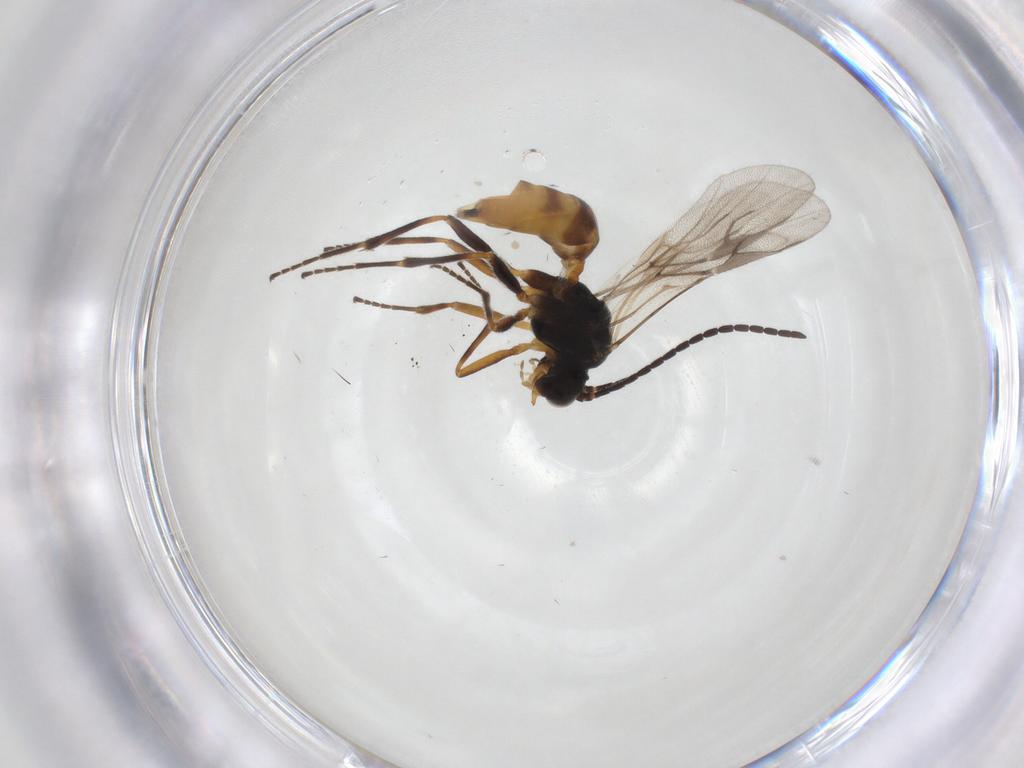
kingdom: Animalia
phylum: Arthropoda
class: Insecta
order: Hymenoptera
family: Braconidae
